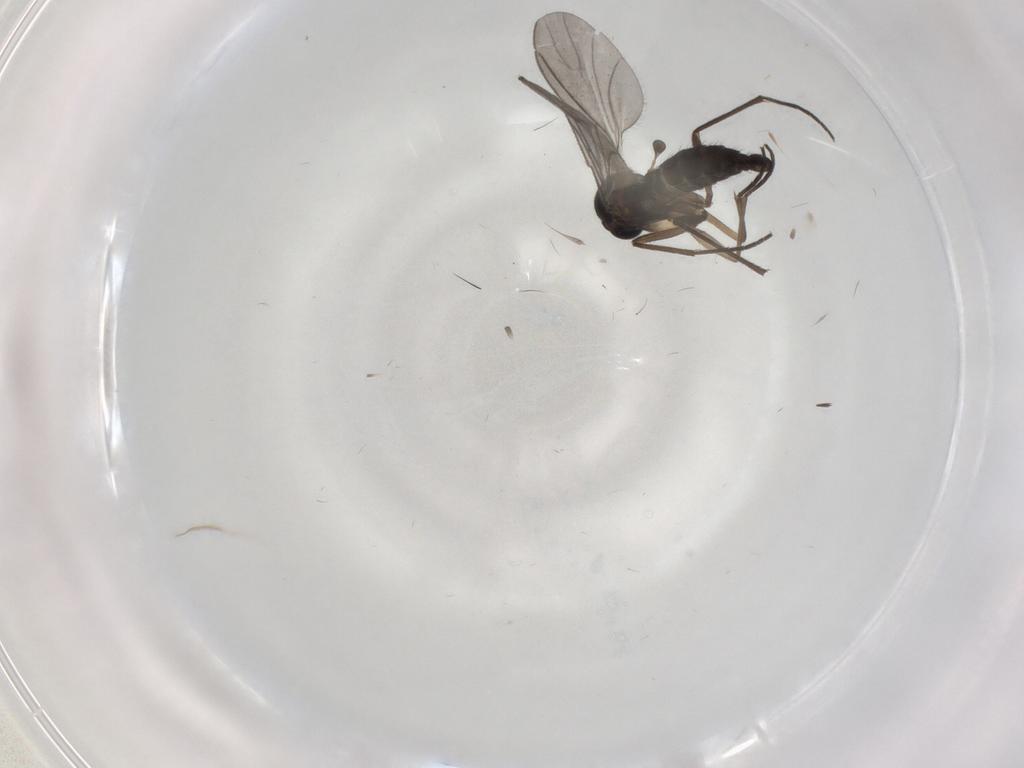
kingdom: Animalia
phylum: Arthropoda
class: Insecta
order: Diptera
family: Sciaridae
